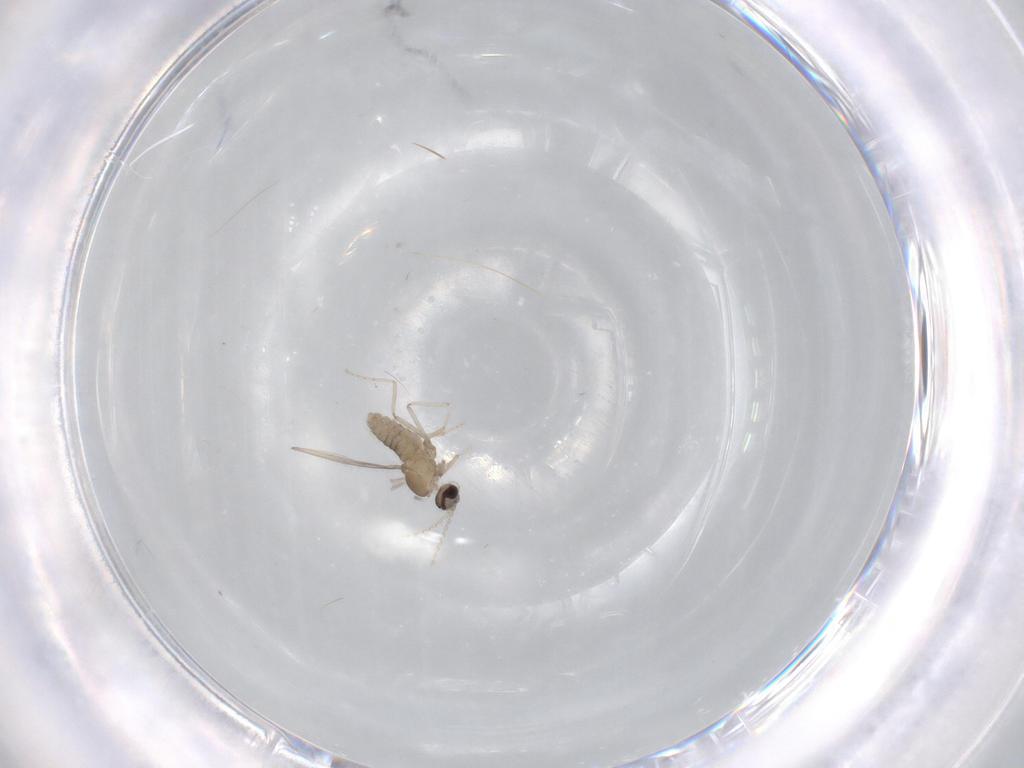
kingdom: Animalia
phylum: Arthropoda
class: Insecta
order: Diptera
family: Cecidomyiidae
